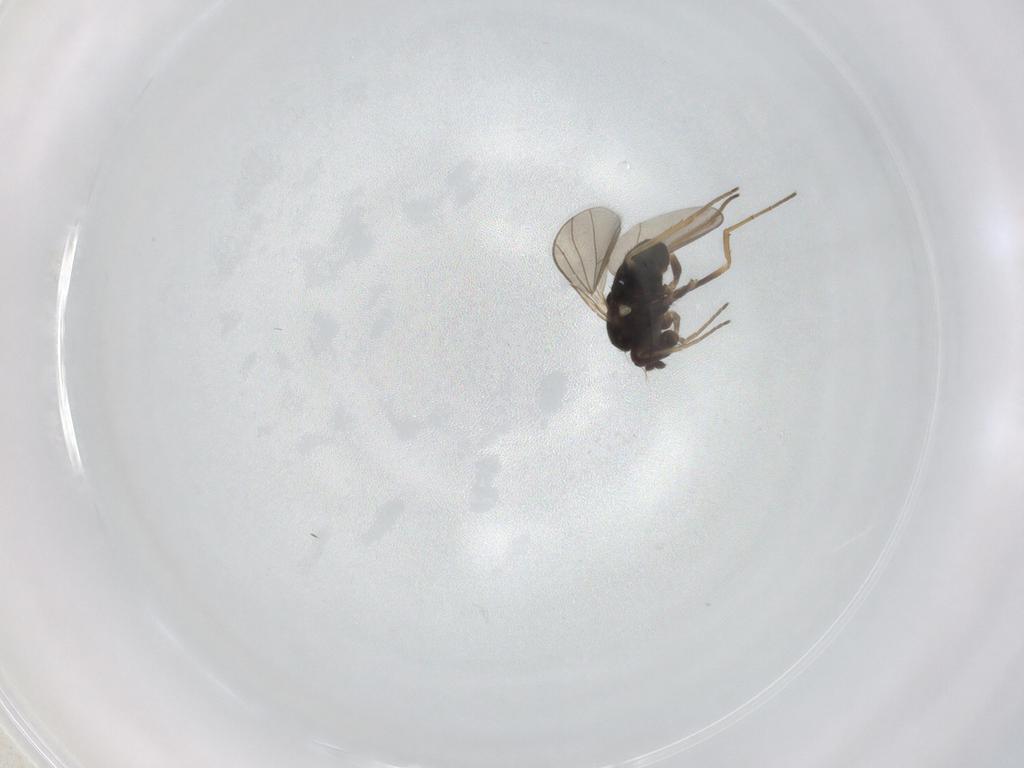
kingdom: Animalia
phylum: Arthropoda
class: Insecta
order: Diptera
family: Dolichopodidae
